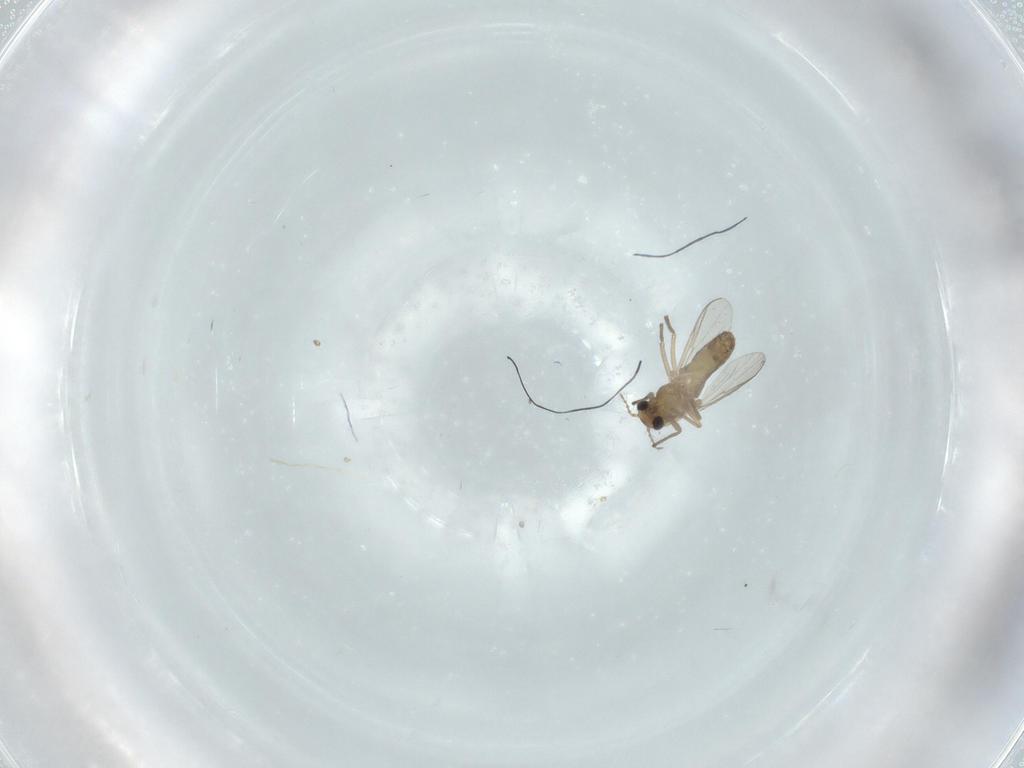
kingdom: Animalia
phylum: Arthropoda
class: Insecta
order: Diptera
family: Chironomidae
